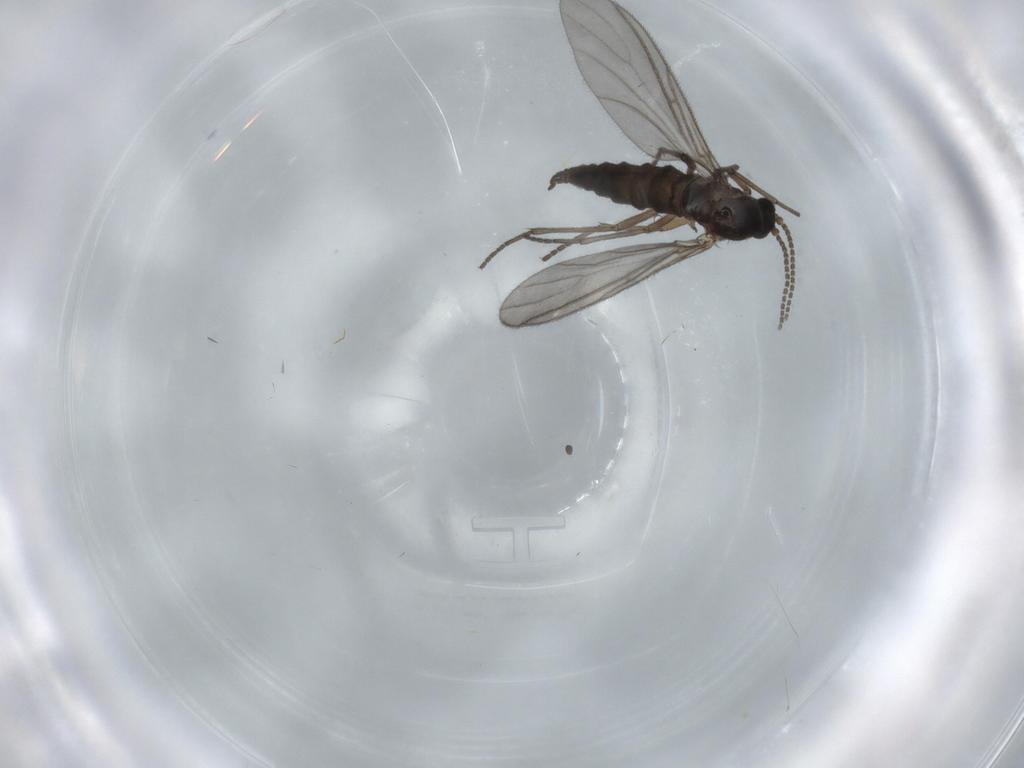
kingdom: Animalia
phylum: Arthropoda
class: Insecta
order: Diptera
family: Sciaridae
